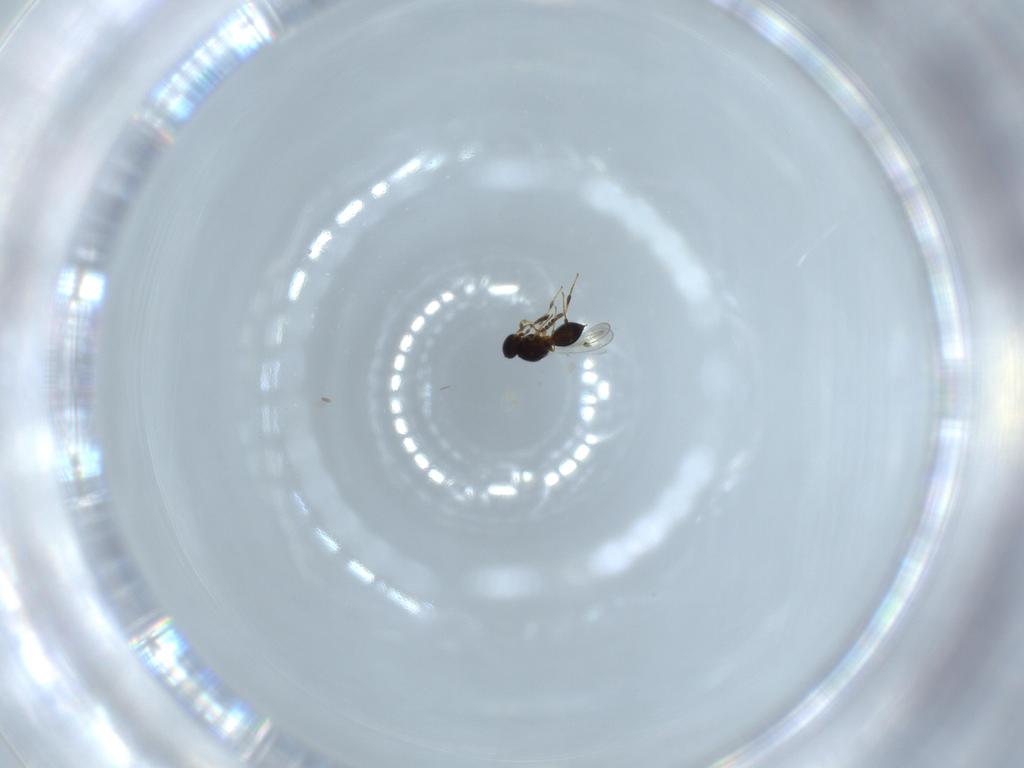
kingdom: Animalia
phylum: Arthropoda
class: Insecta
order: Hymenoptera
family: Platygastridae
